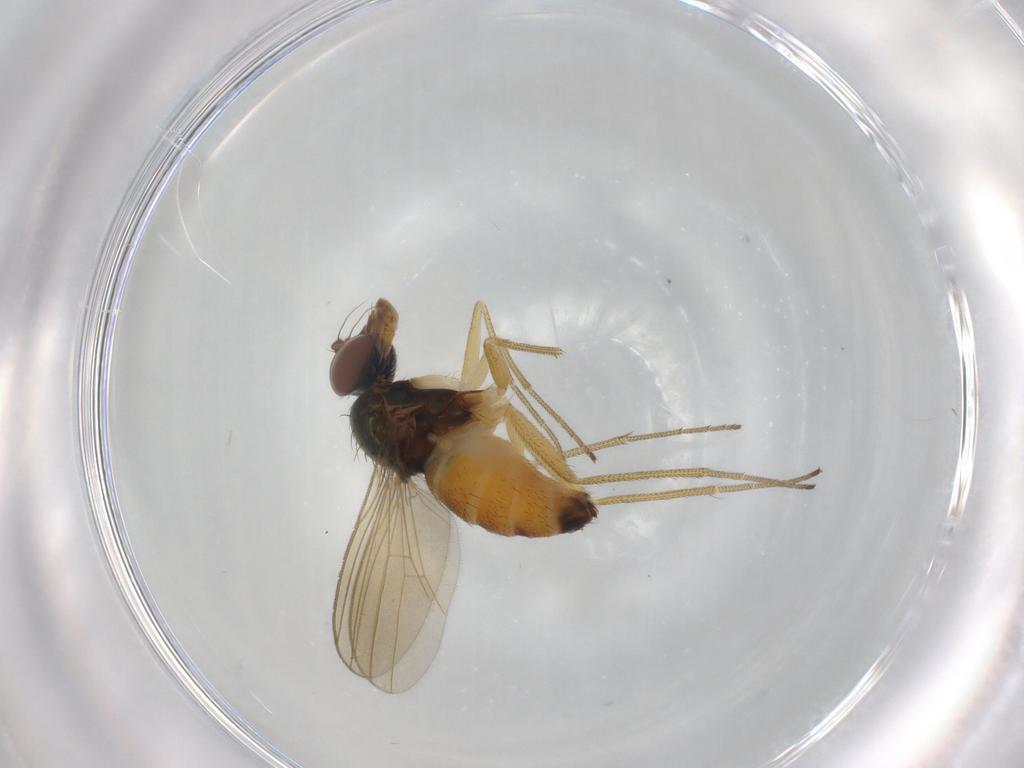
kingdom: Animalia
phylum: Arthropoda
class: Insecta
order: Diptera
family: Dolichopodidae
